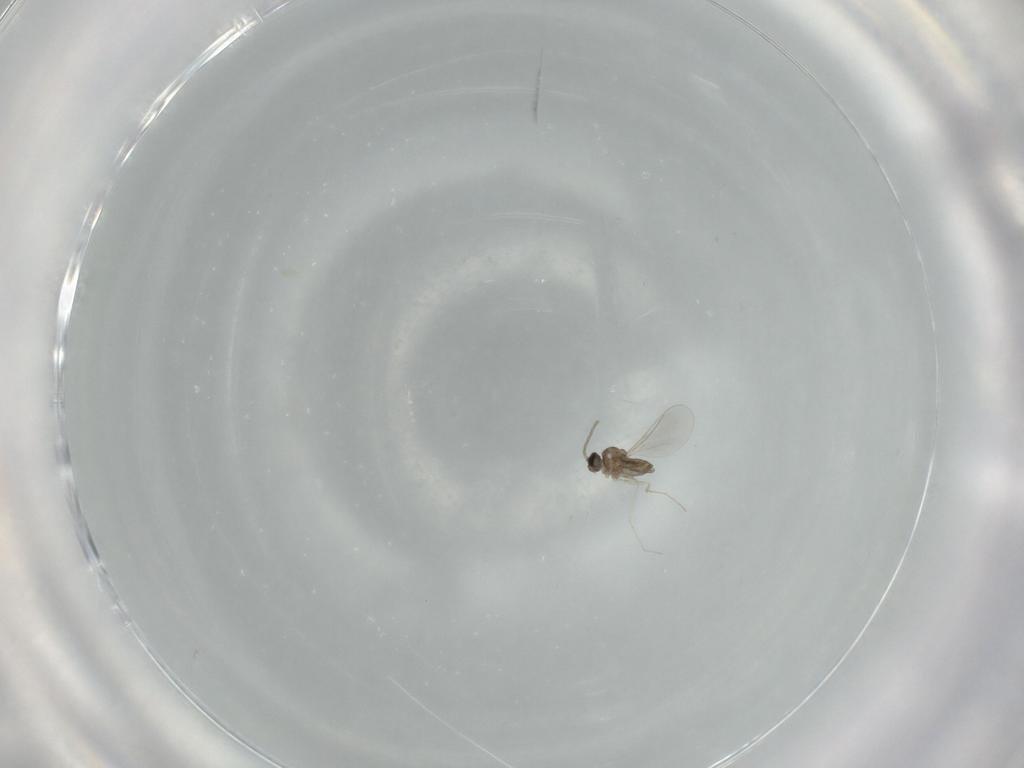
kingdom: Animalia
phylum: Arthropoda
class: Insecta
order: Diptera
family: Cecidomyiidae
